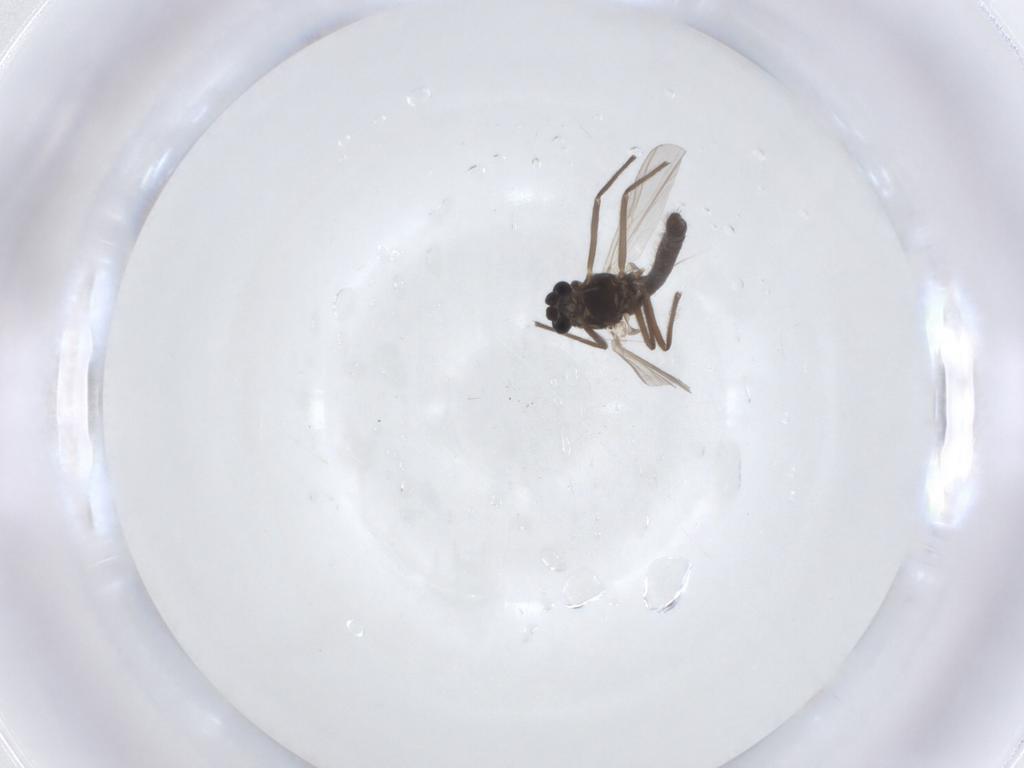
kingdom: Animalia
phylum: Arthropoda
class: Insecta
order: Diptera
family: Chironomidae
